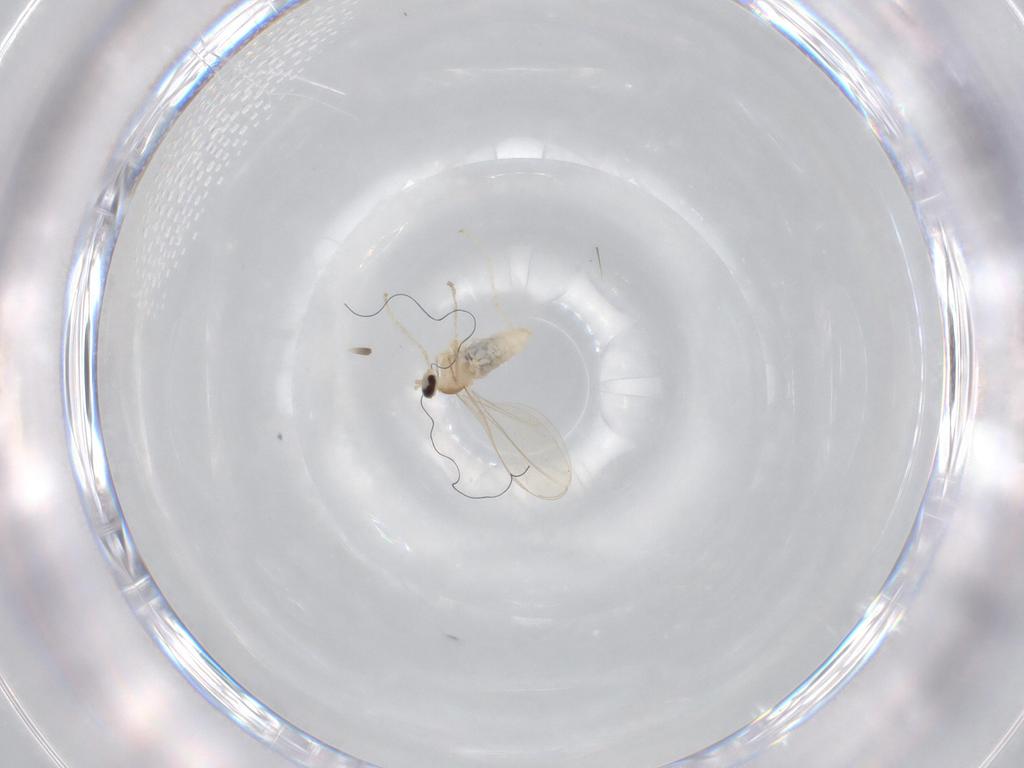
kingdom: Animalia
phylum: Arthropoda
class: Insecta
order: Diptera
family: Cecidomyiidae
